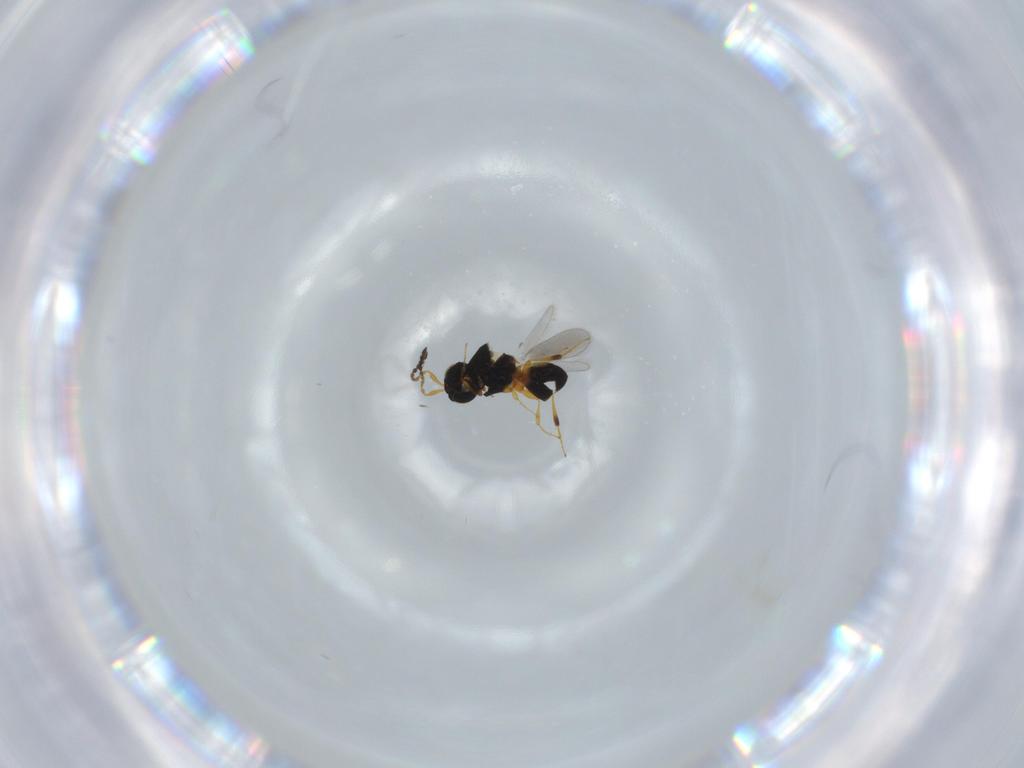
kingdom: Animalia
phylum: Arthropoda
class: Insecta
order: Hymenoptera
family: Platygastridae
